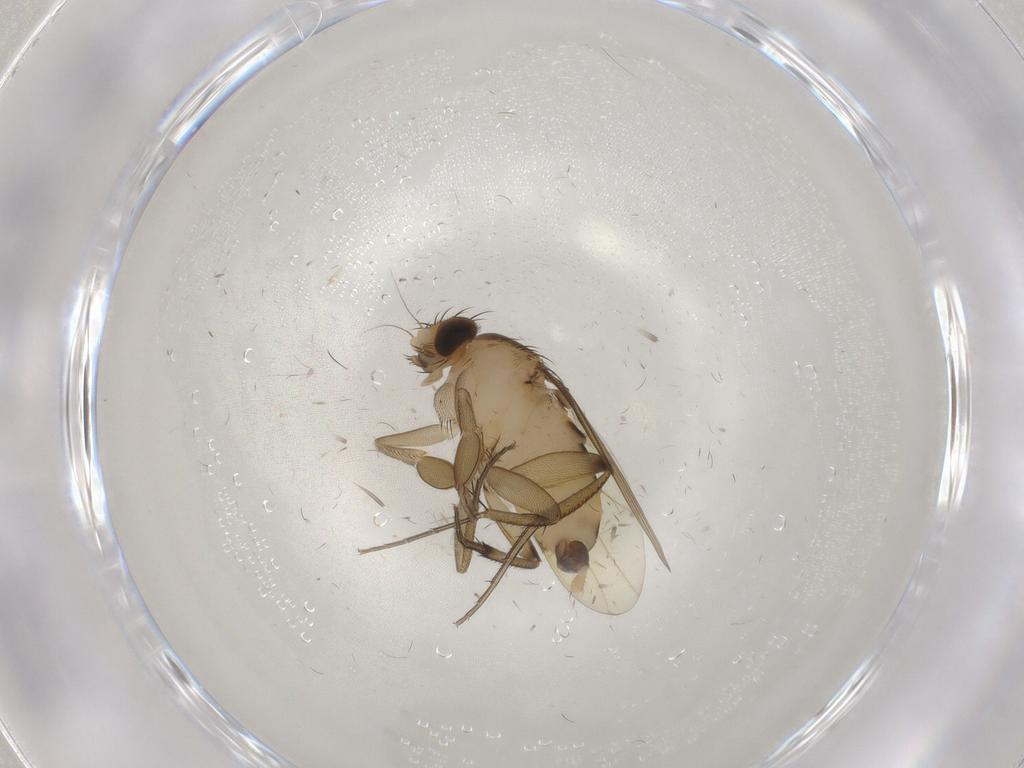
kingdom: Animalia
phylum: Arthropoda
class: Insecta
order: Diptera
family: Phoridae
